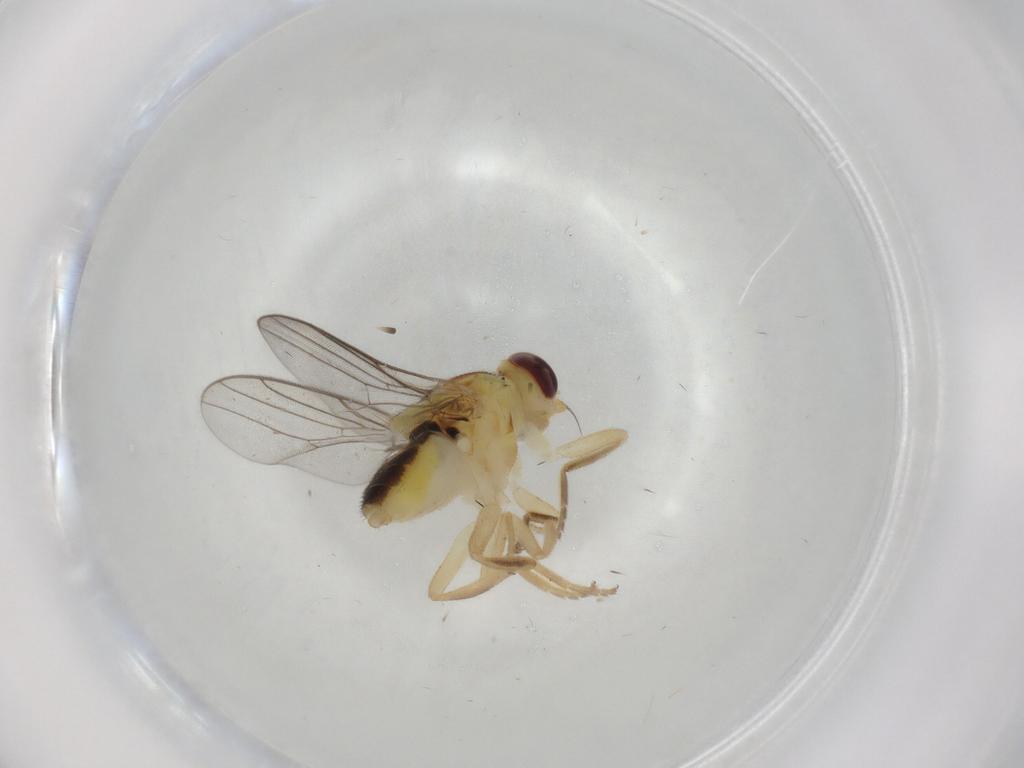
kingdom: Animalia
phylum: Arthropoda
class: Insecta
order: Diptera
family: Chloropidae
